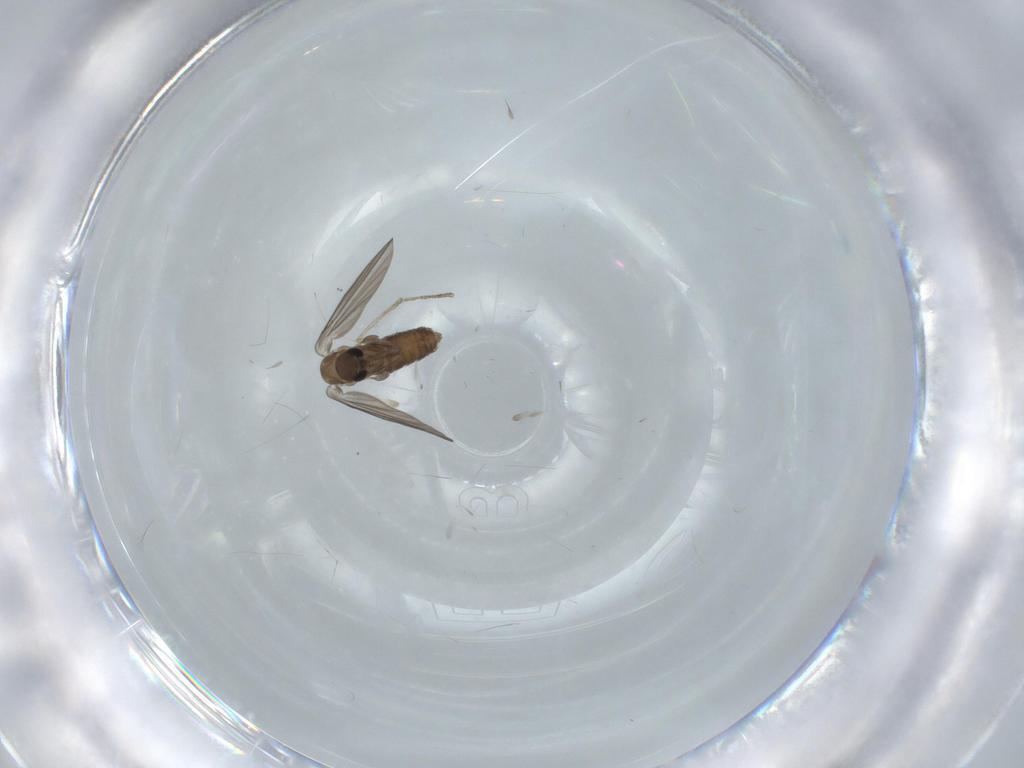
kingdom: Animalia
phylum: Arthropoda
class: Insecta
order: Diptera
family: Psychodidae
